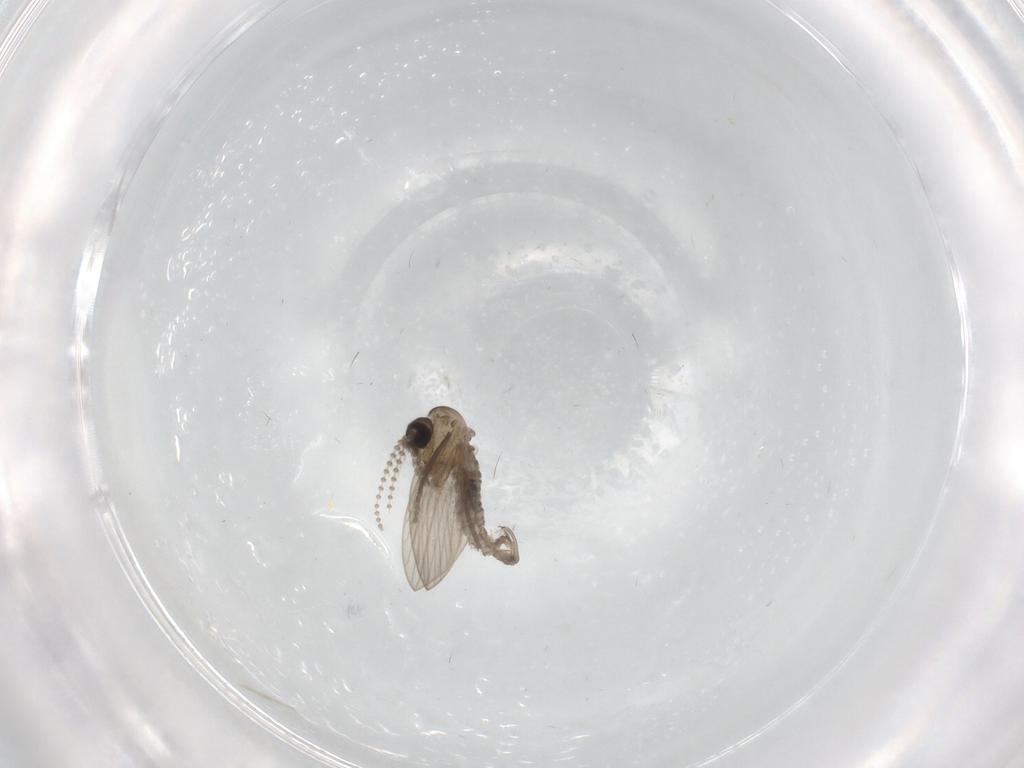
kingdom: Animalia
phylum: Arthropoda
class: Insecta
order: Diptera
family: Psychodidae
